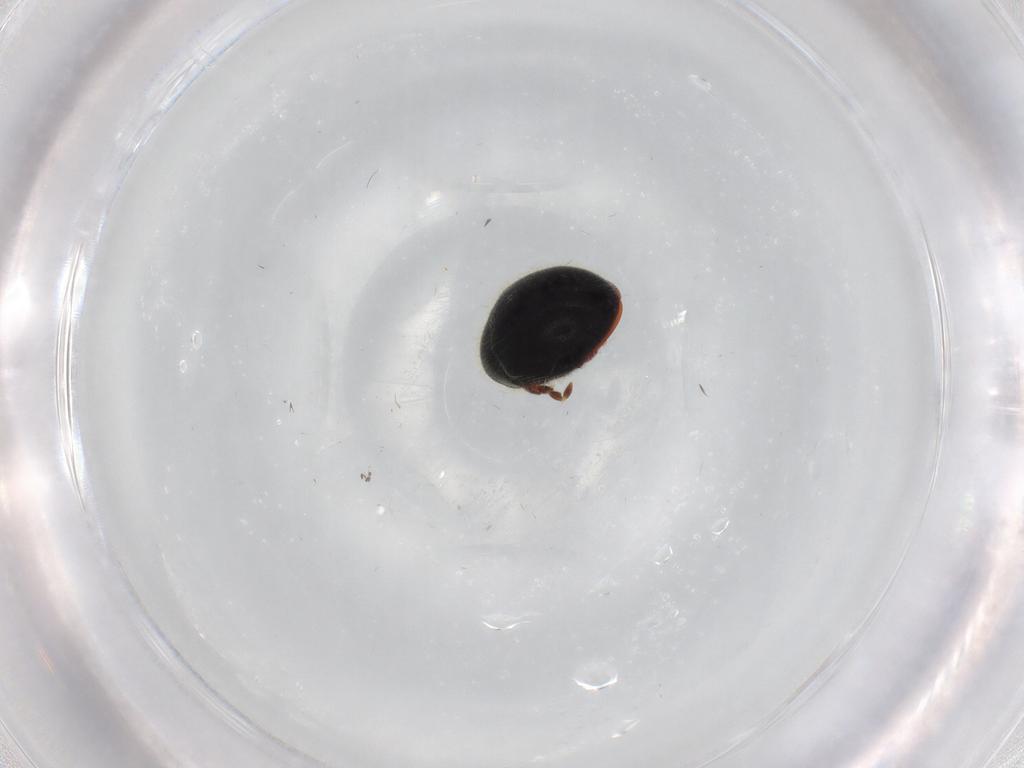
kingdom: Animalia
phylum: Arthropoda
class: Insecta
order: Coleoptera
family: Ptinidae
